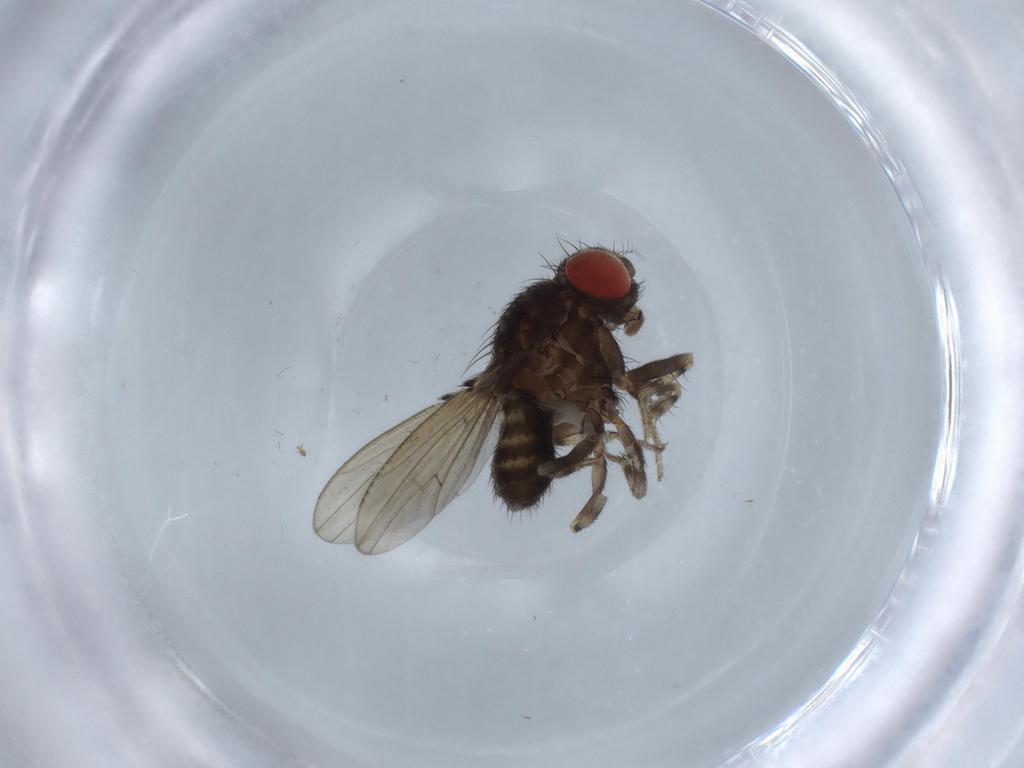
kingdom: Animalia
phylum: Arthropoda
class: Insecta
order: Diptera
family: Drosophilidae
